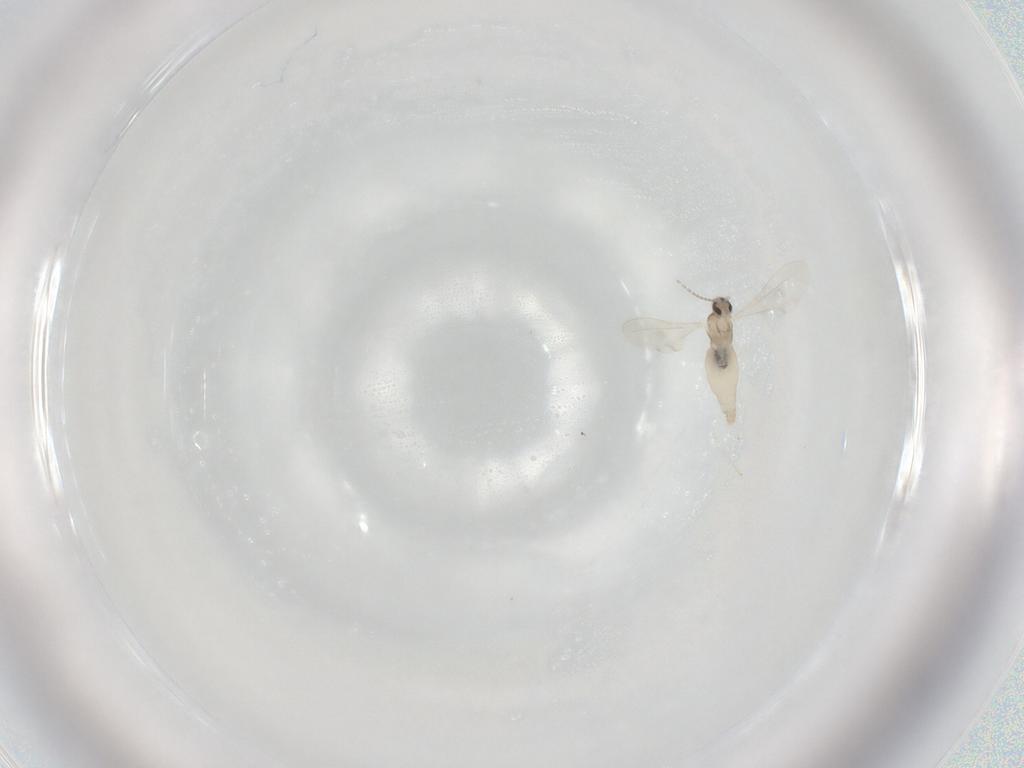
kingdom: Animalia
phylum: Arthropoda
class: Insecta
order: Diptera
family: Cecidomyiidae
